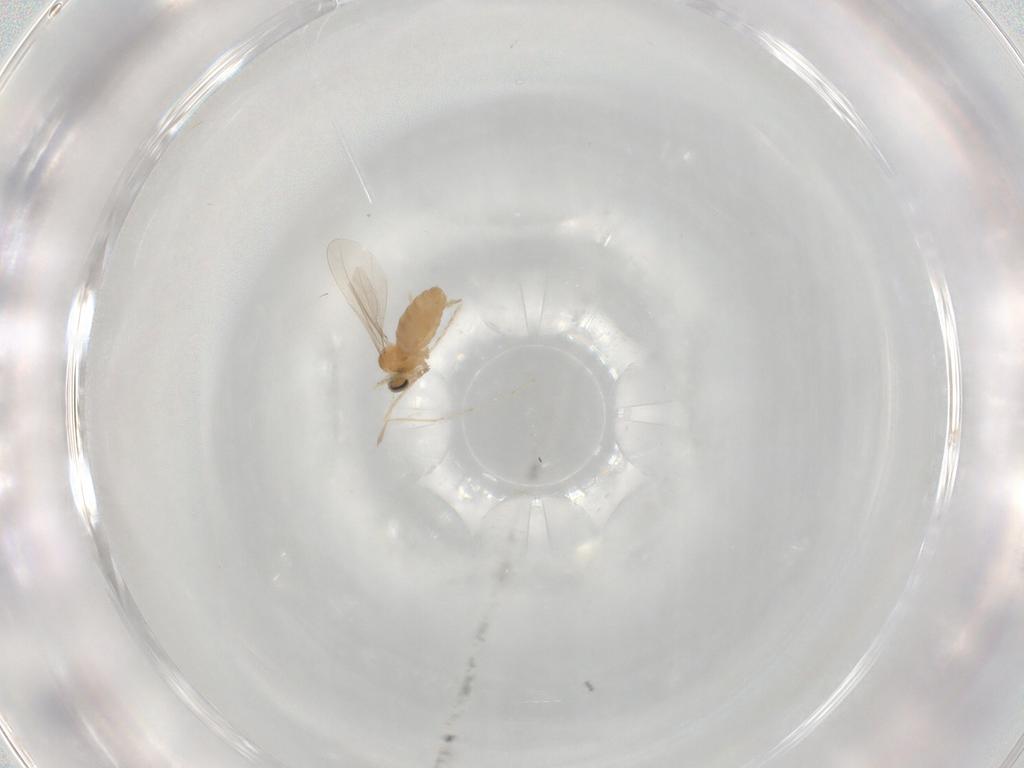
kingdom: Animalia
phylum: Arthropoda
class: Insecta
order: Diptera
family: Cecidomyiidae
